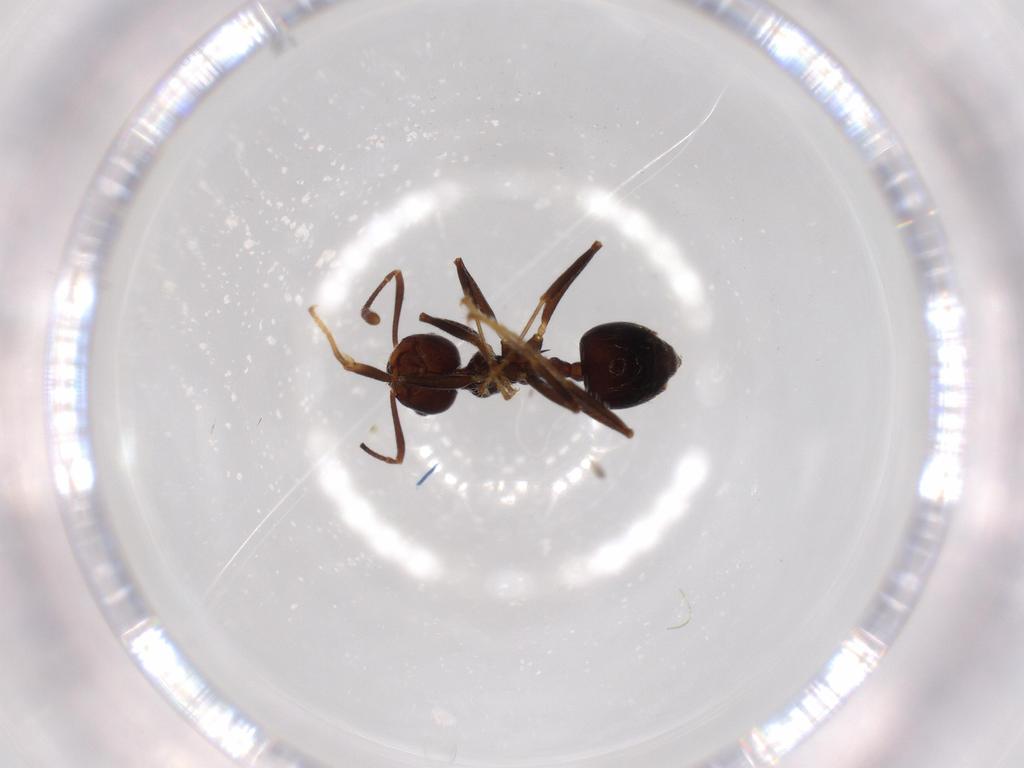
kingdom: Animalia
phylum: Arthropoda
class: Insecta
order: Hymenoptera
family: Formicidae
